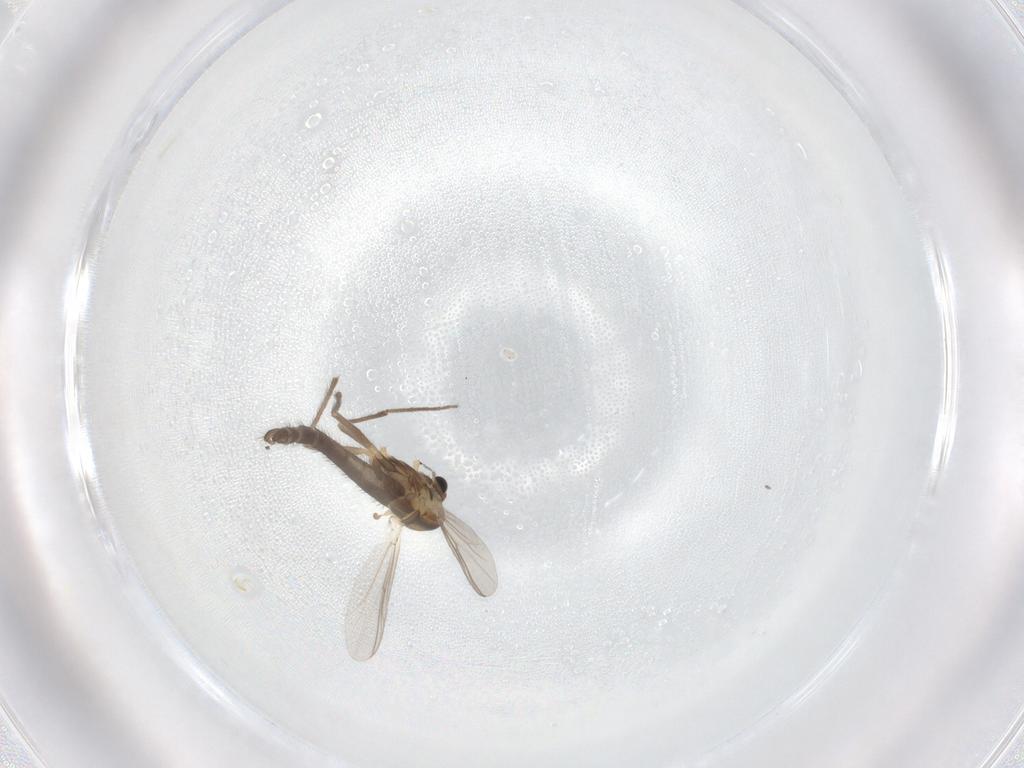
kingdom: Animalia
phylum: Arthropoda
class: Insecta
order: Diptera
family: Chironomidae
